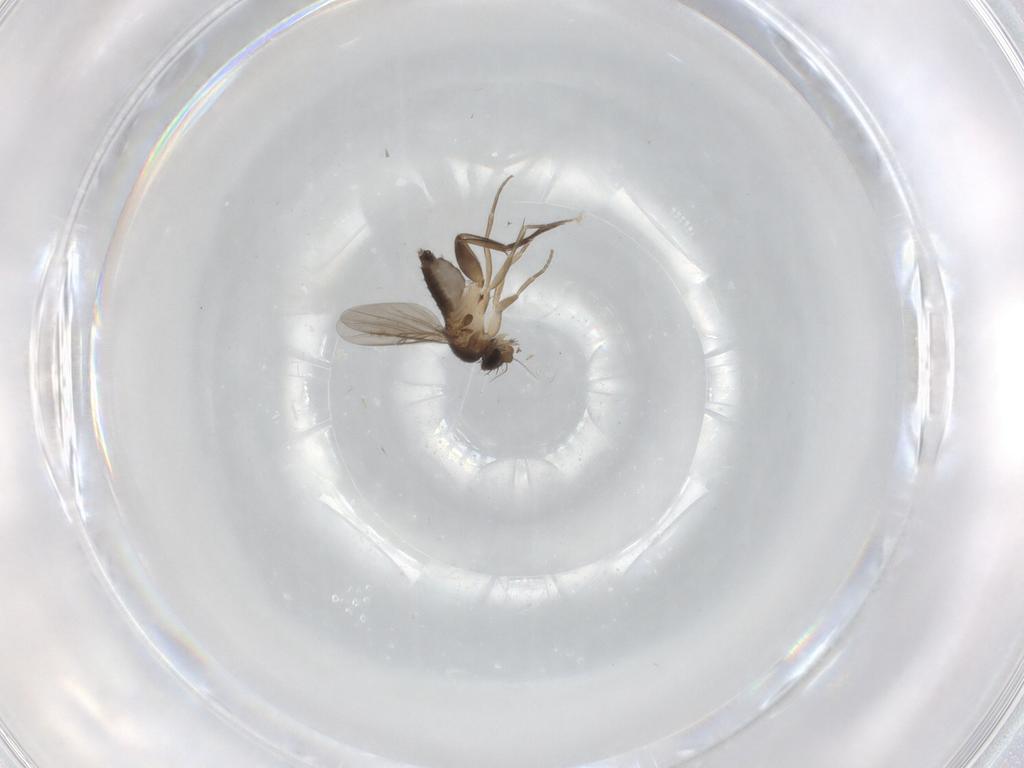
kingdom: Animalia
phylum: Arthropoda
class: Insecta
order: Diptera
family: Phoridae
